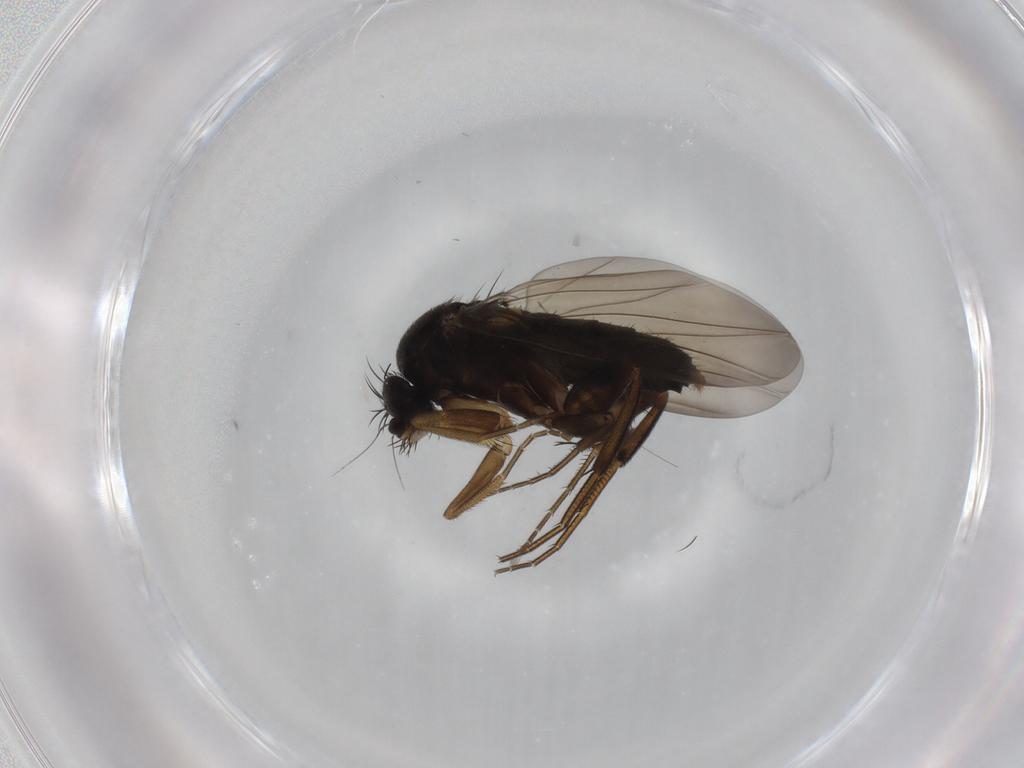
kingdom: Animalia
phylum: Arthropoda
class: Insecta
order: Diptera
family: Phoridae
